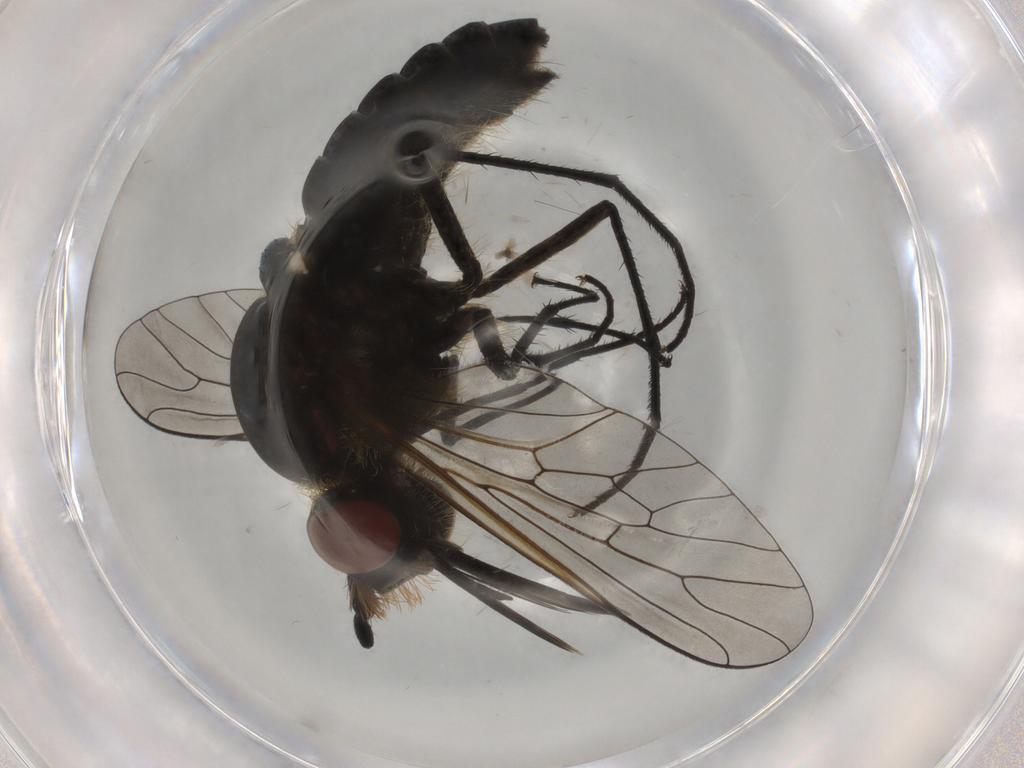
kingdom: Animalia
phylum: Arthropoda
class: Insecta
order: Diptera
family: Bombyliidae
